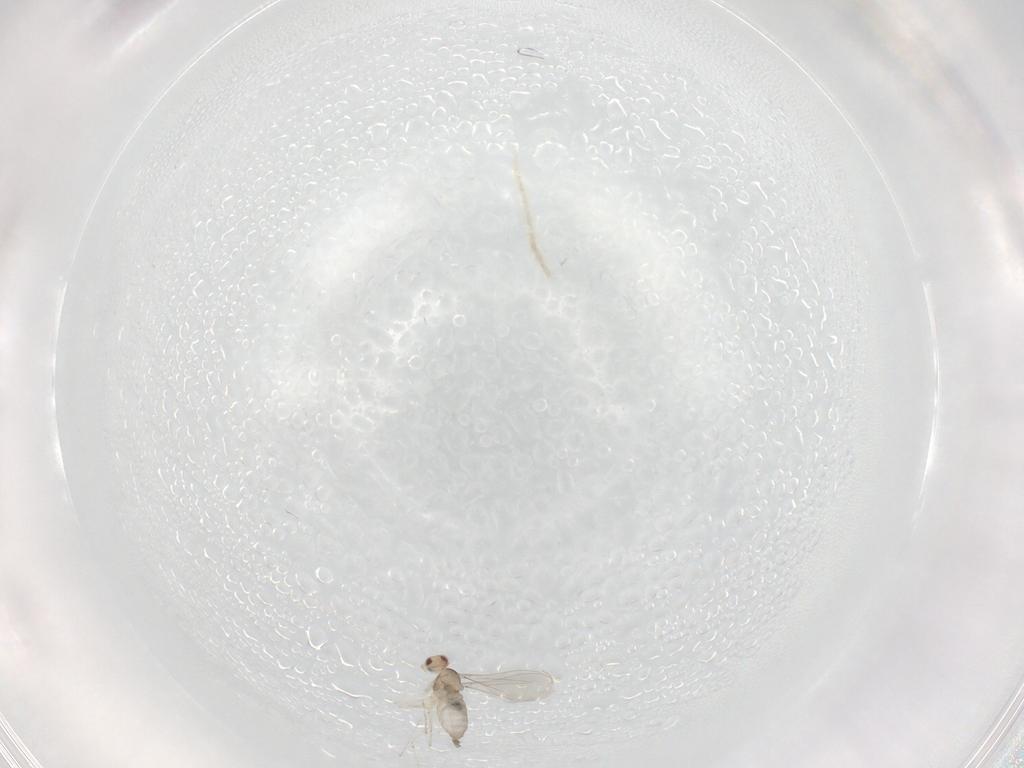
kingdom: Animalia
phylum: Arthropoda
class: Insecta
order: Diptera
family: Cecidomyiidae
